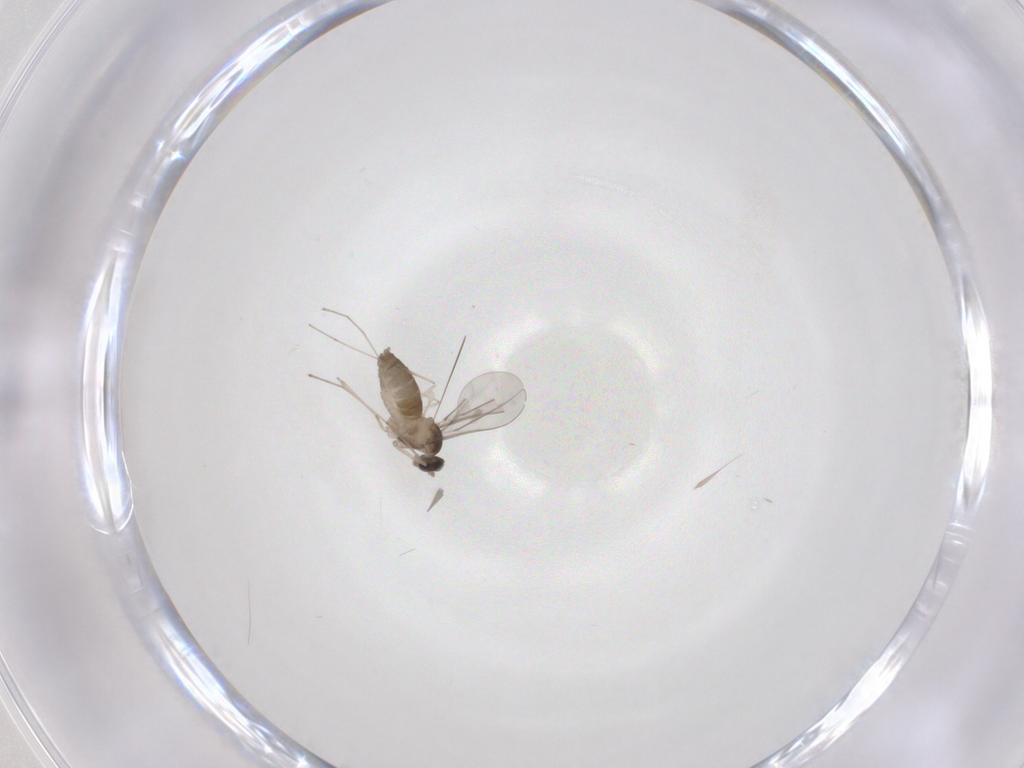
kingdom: Animalia
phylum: Arthropoda
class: Insecta
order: Diptera
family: Cecidomyiidae
